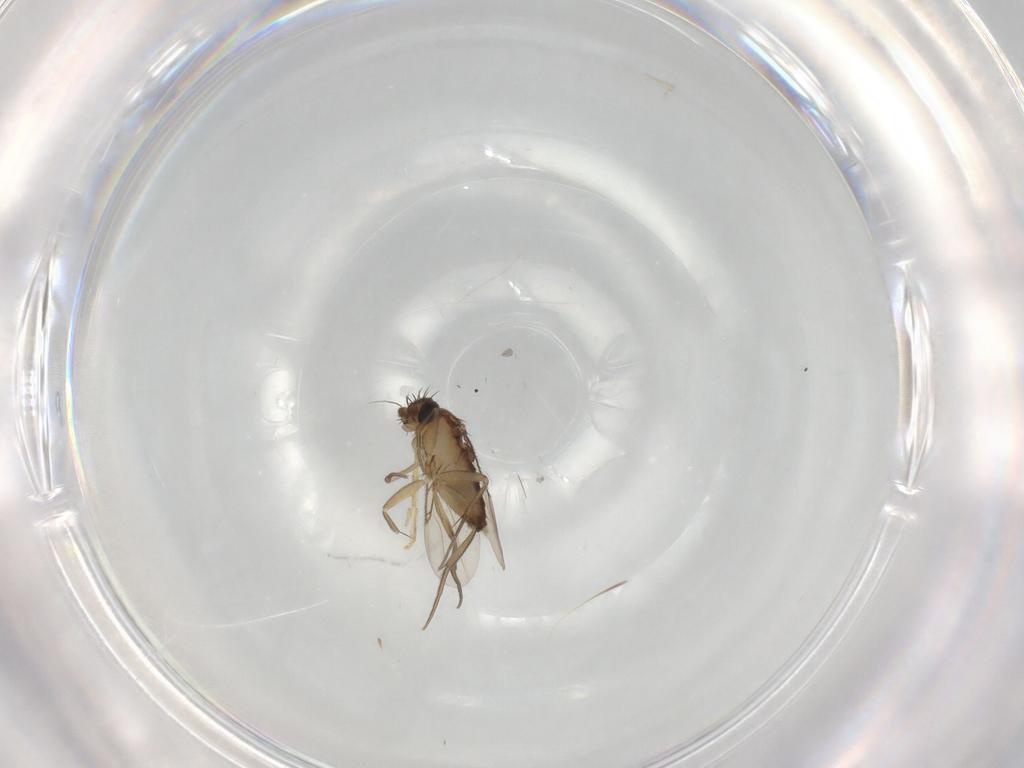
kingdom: Animalia
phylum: Arthropoda
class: Insecta
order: Diptera
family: Phoridae
